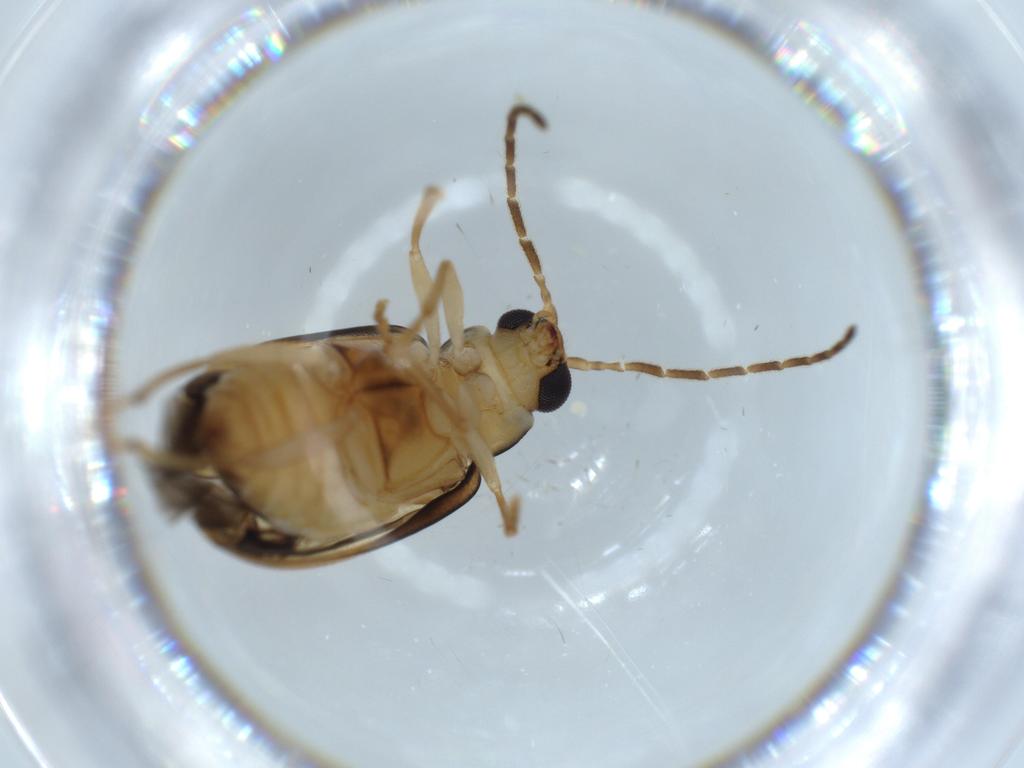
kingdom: Animalia
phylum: Arthropoda
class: Insecta
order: Coleoptera
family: Chrysomelidae
